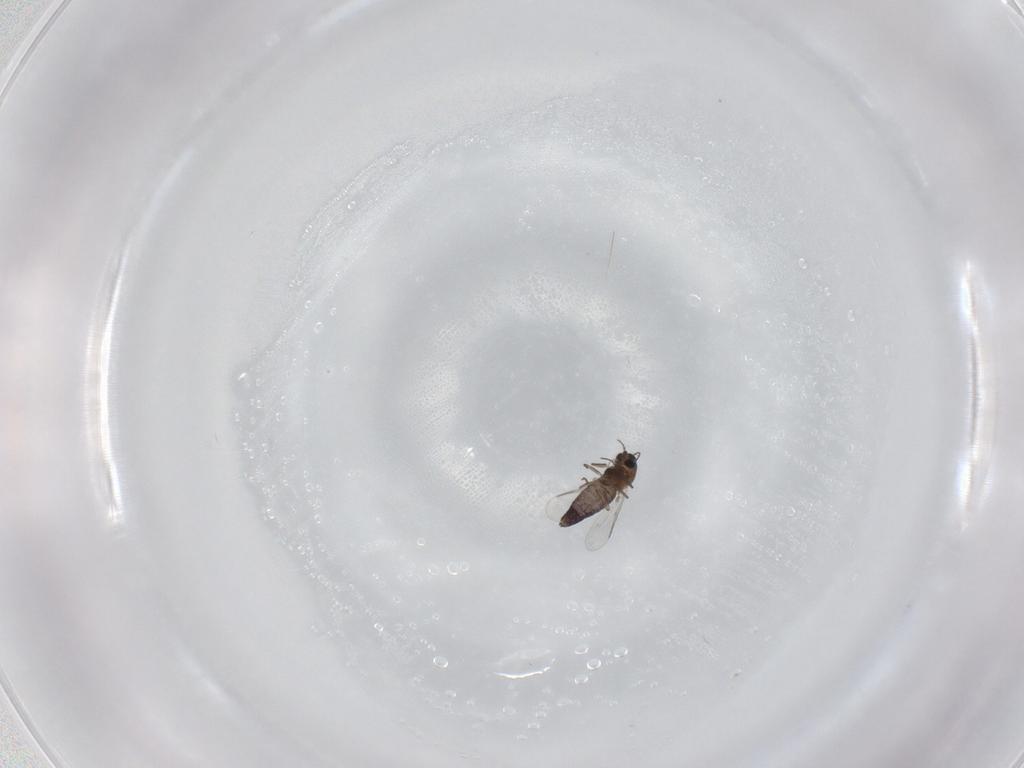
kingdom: Animalia
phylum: Arthropoda
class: Insecta
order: Diptera
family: Chironomidae
